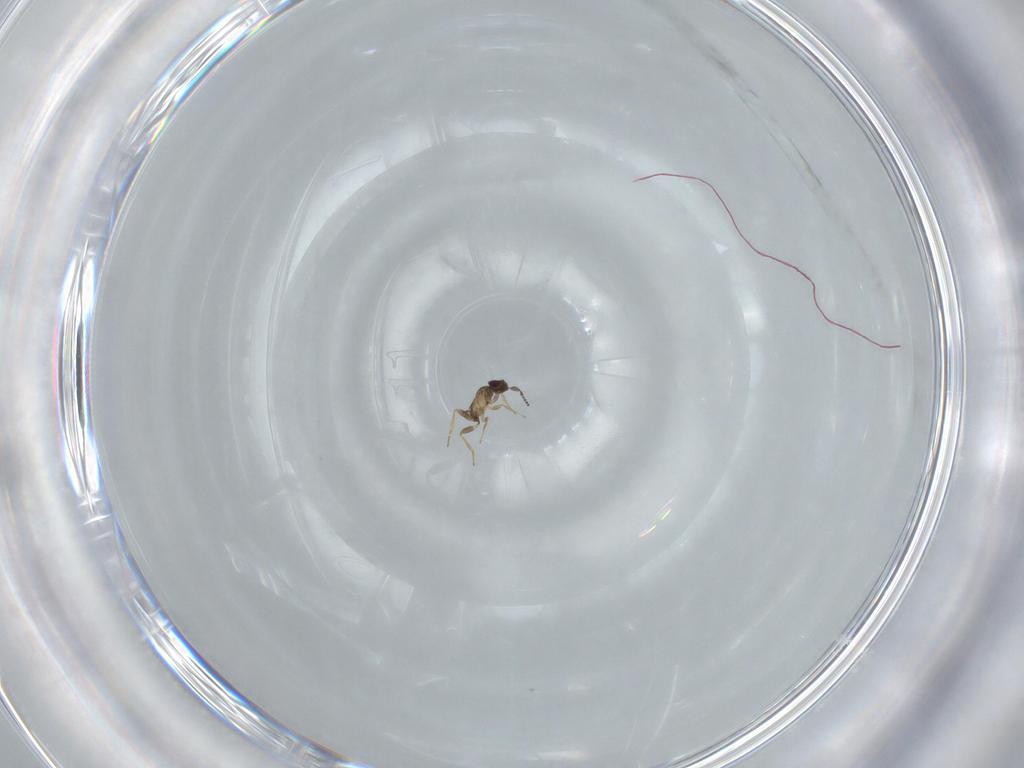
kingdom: Animalia
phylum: Arthropoda
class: Insecta
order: Hymenoptera
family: Mymaridae
